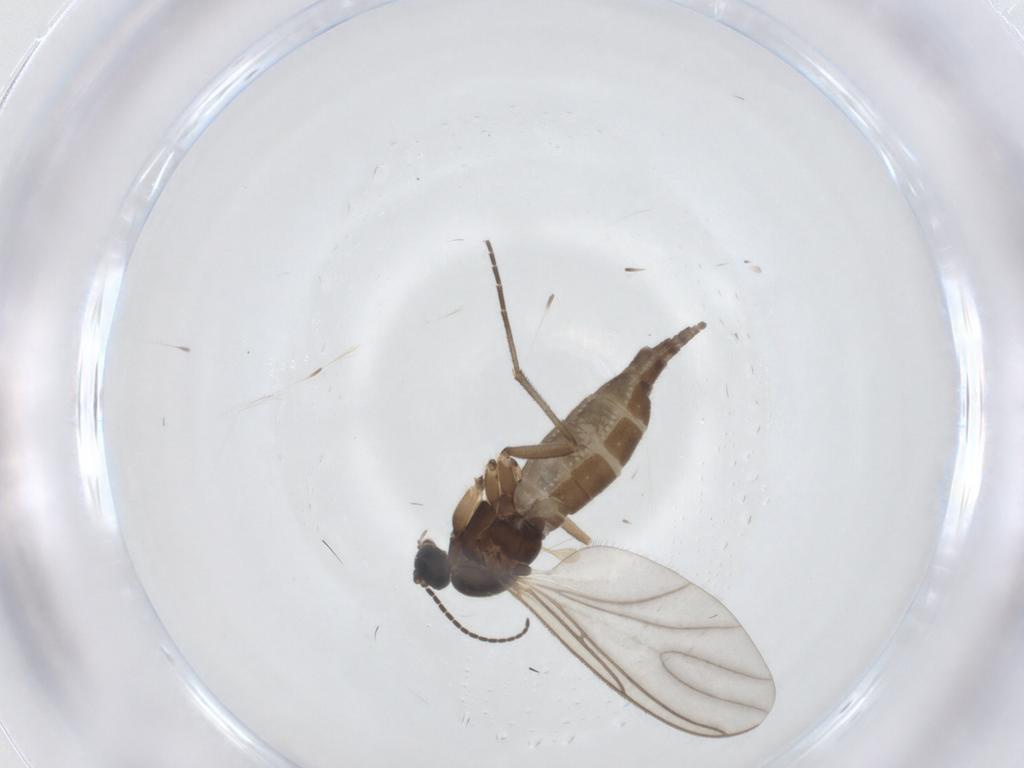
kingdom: Animalia
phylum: Arthropoda
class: Insecta
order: Diptera
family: Sciaridae
